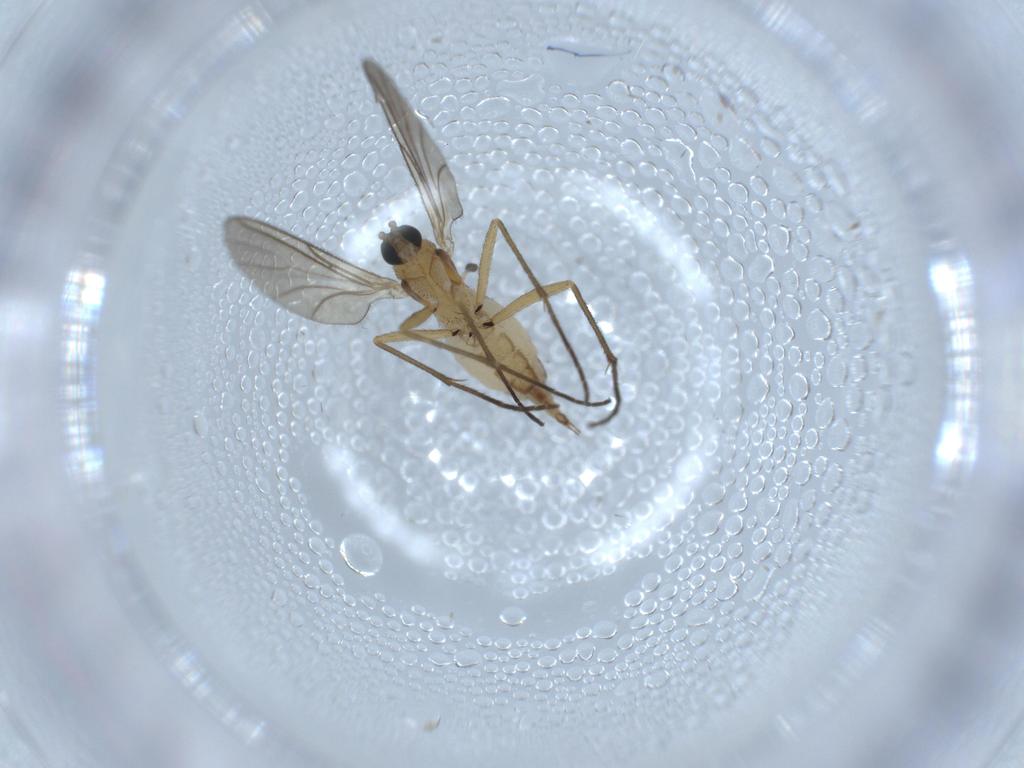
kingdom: Animalia
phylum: Arthropoda
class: Insecta
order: Diptera
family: Sciaridae
